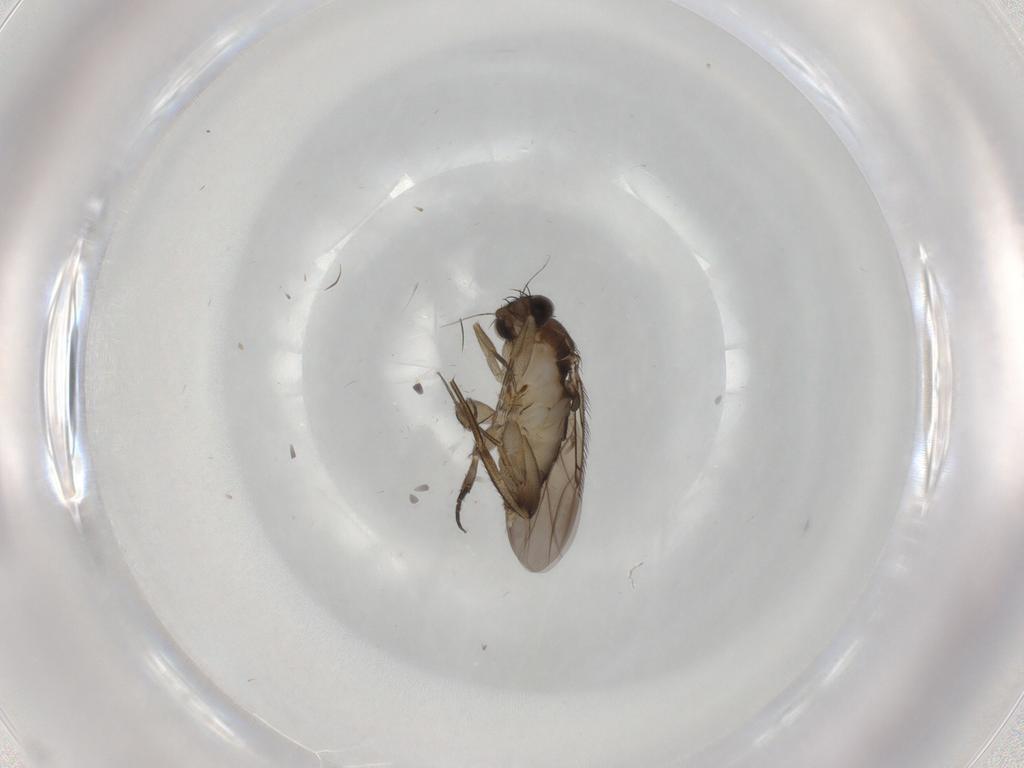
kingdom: Animalia
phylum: Arthropoda
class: Insecta
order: Diptera
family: Phoridae
